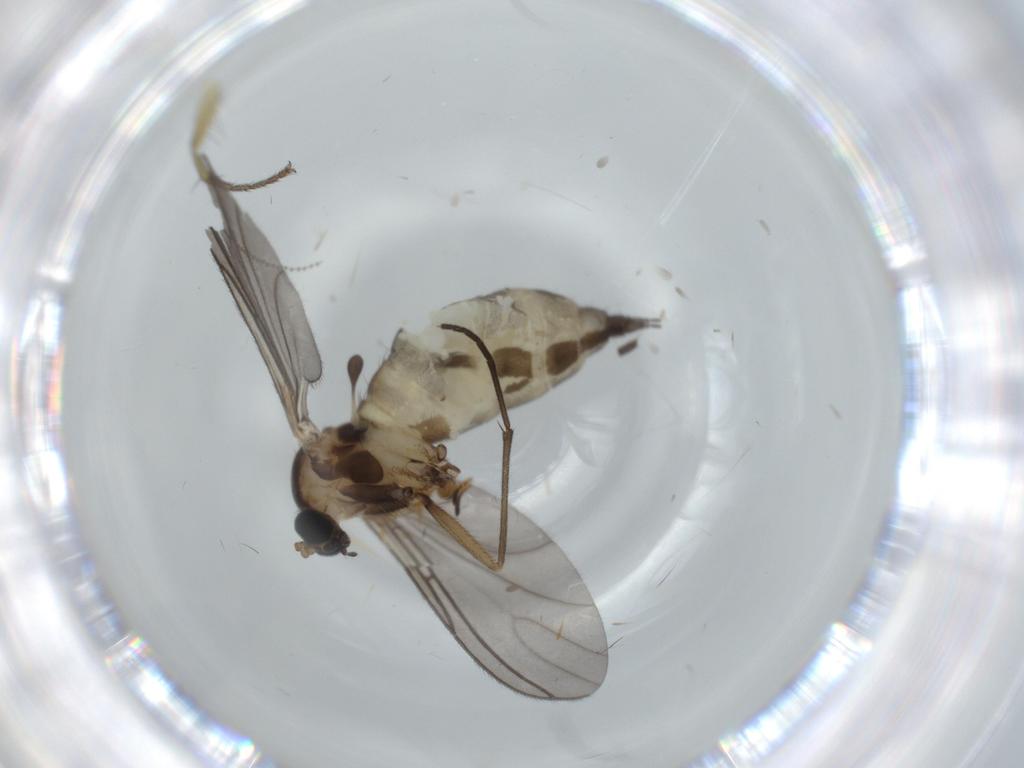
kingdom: Animalia
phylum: Arthropoda
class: Insecta
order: Diptera
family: Sciaridae
